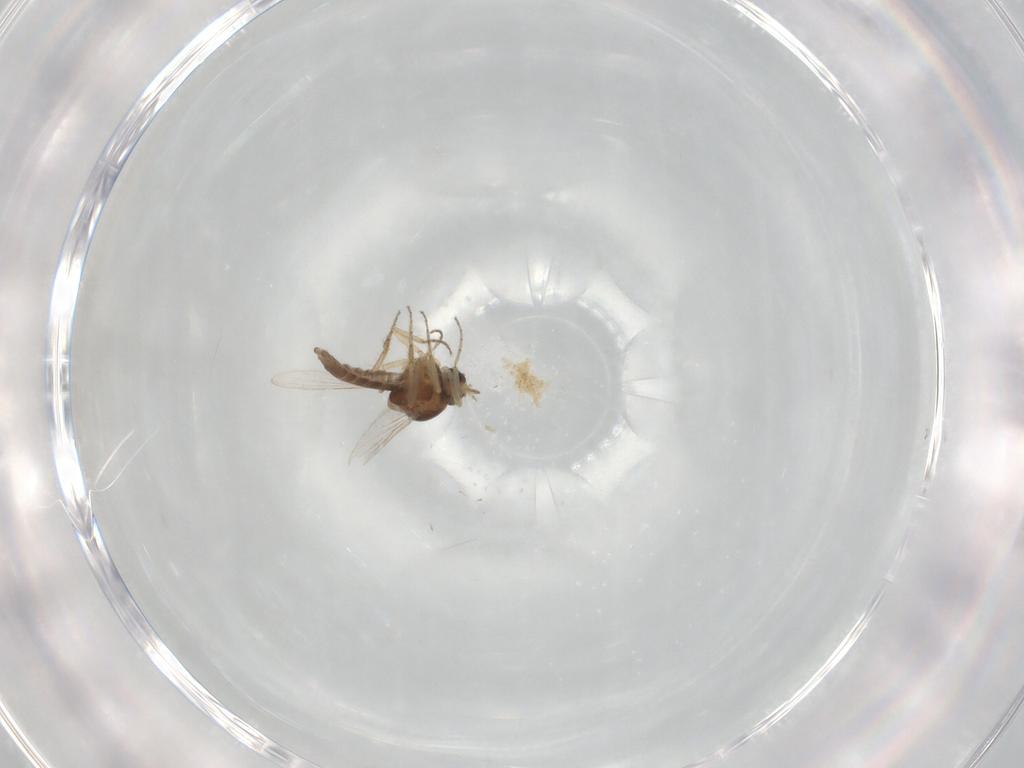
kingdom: Animalia
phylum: Arthropoda
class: Insecta
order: Diptera
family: Ceratopogonidae
